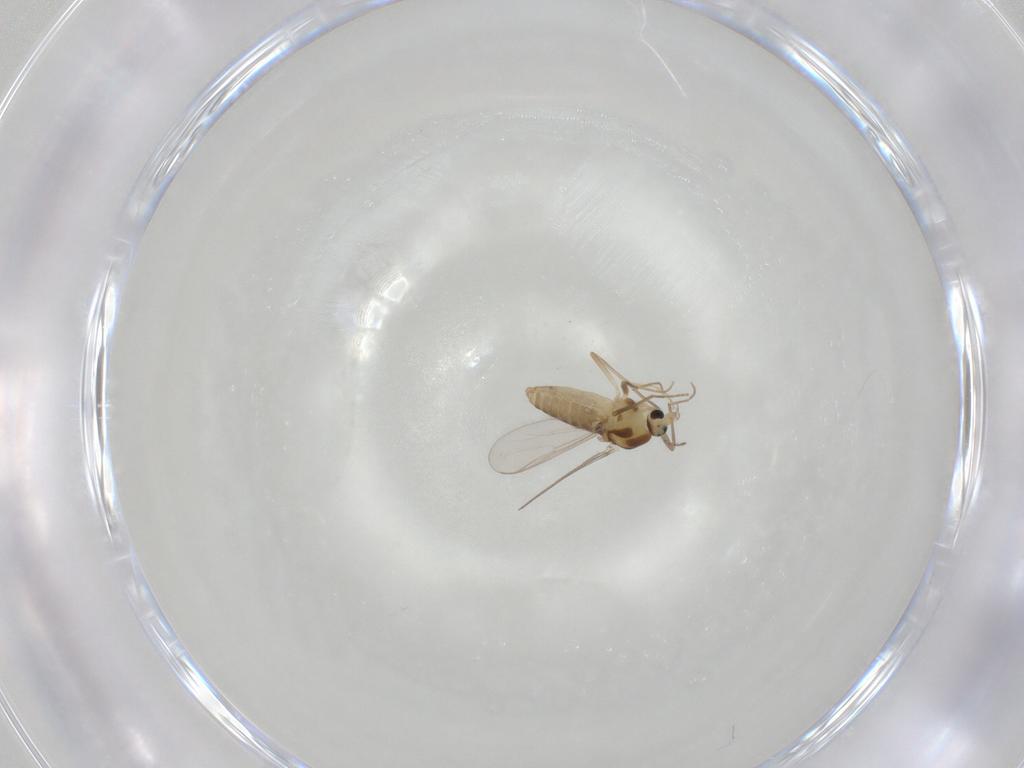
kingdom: Animalia
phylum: Arthropoda
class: Insecta
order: Diptera
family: Chironomidae
